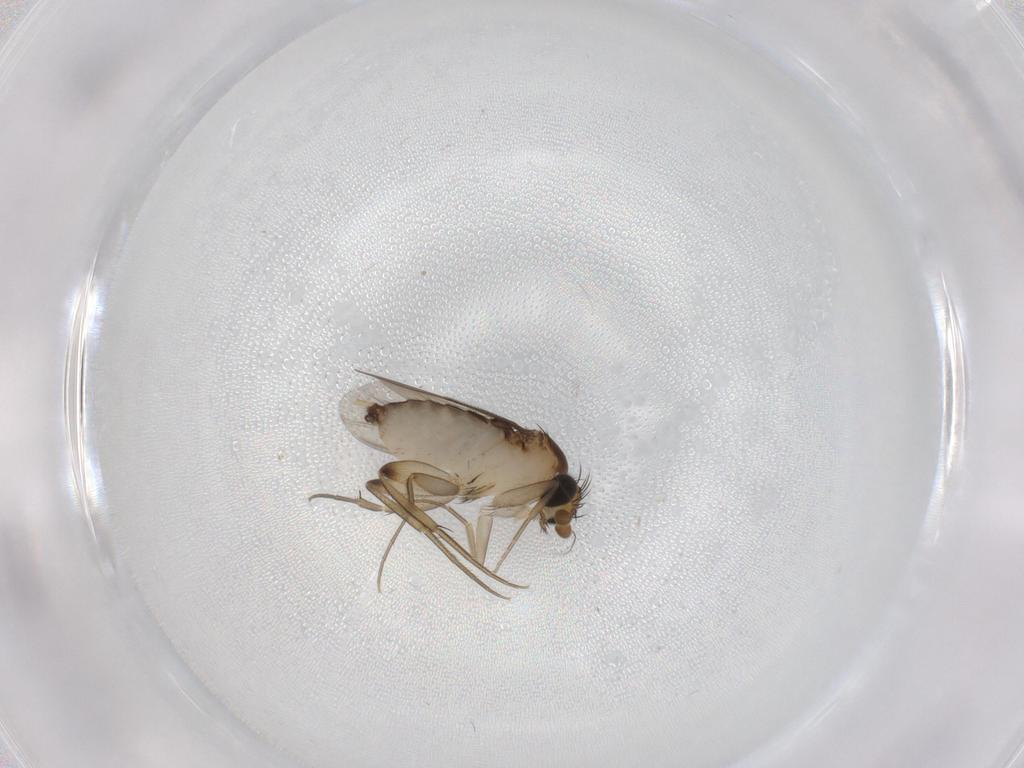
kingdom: Animalia
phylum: Arthropoda
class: Insecta
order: Diptera
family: Phoridae
